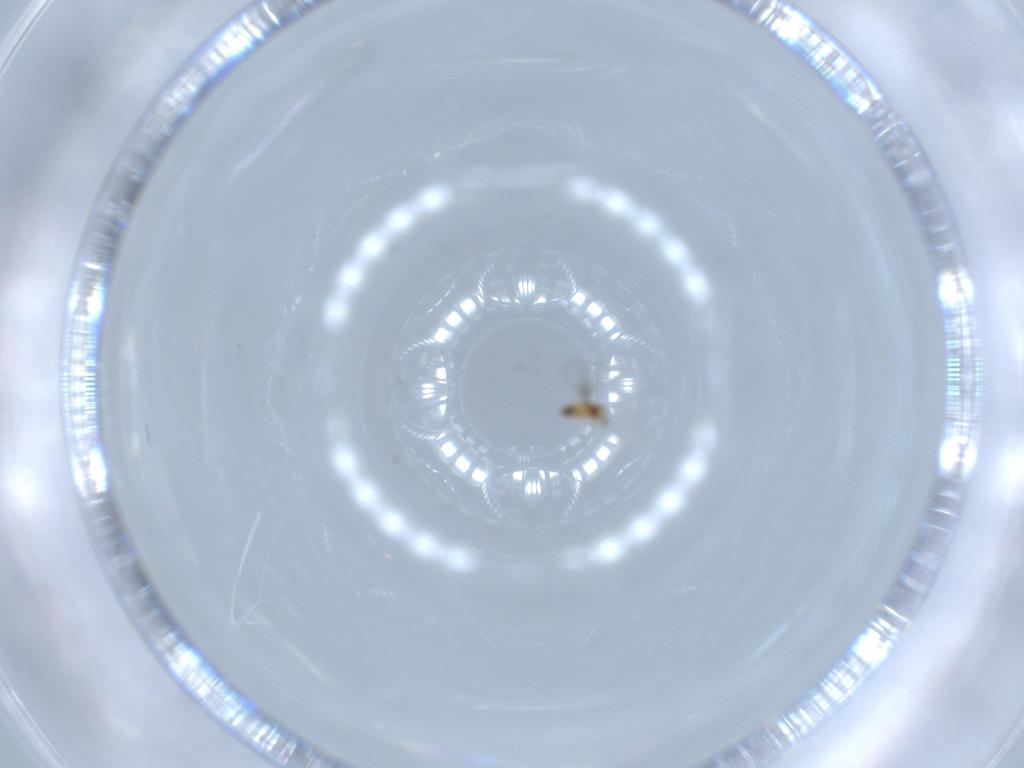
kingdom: Animalia
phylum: Arthropoda
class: Insecta
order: Hymenoptera
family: Trichogrammatidae
